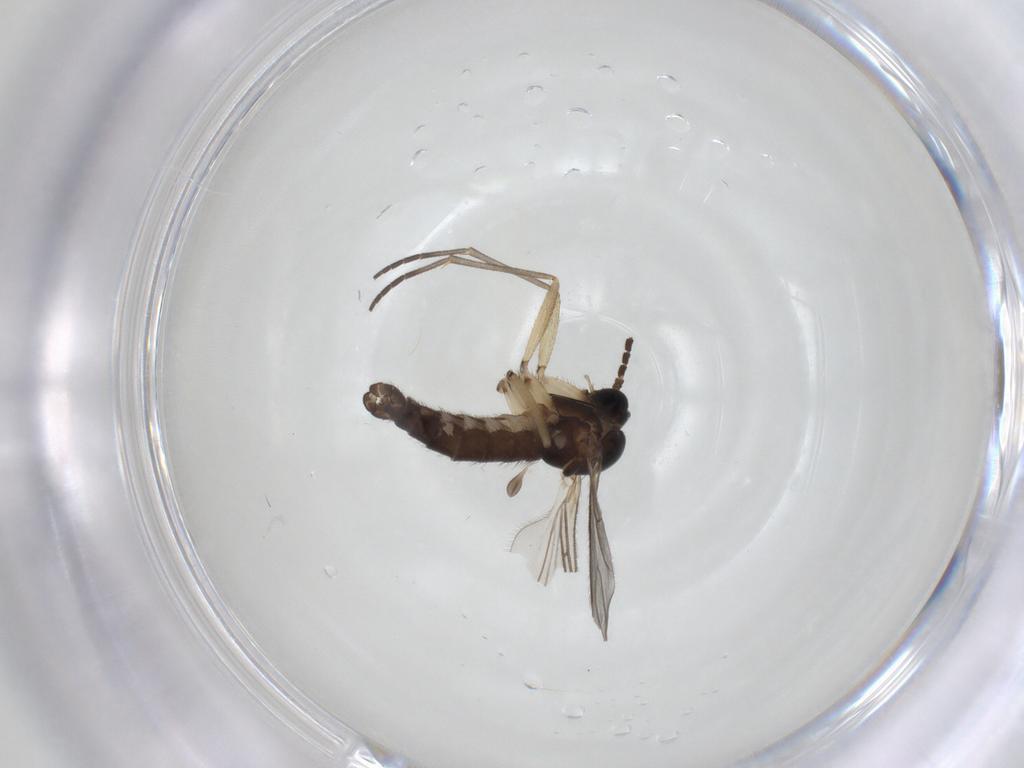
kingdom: Animalia
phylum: Arthropoda
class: Insecta
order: Diptera
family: Sciaridae
